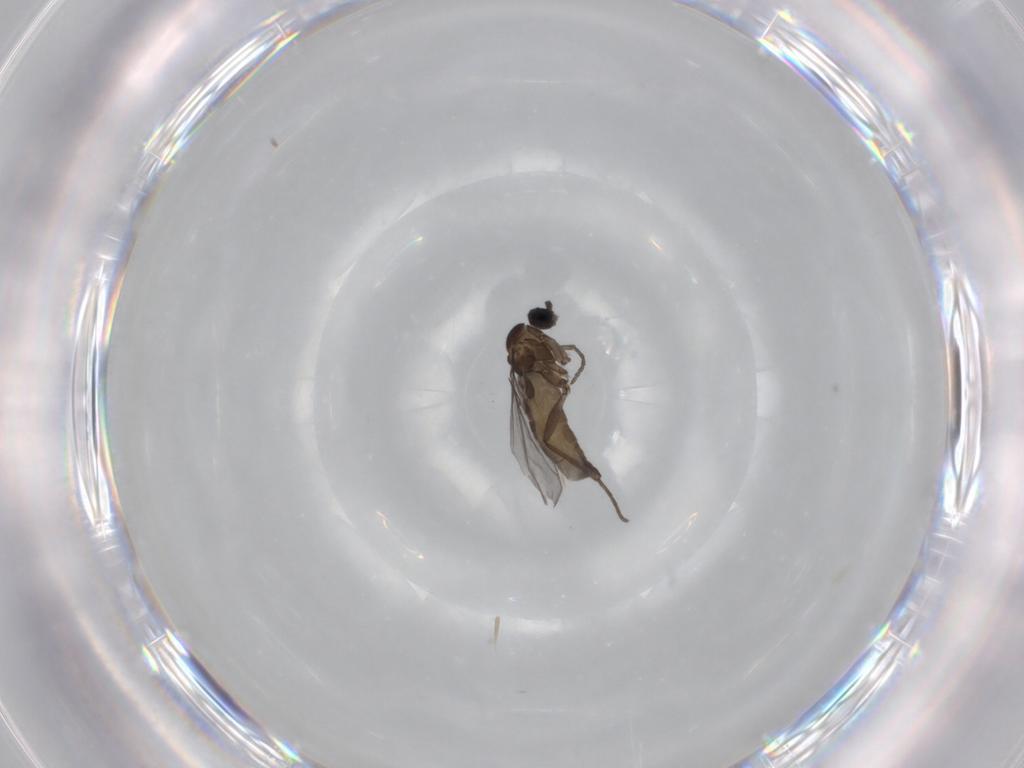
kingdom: Animalia
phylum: Arthropoda
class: Insecta
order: Diptera
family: Sciaridae
